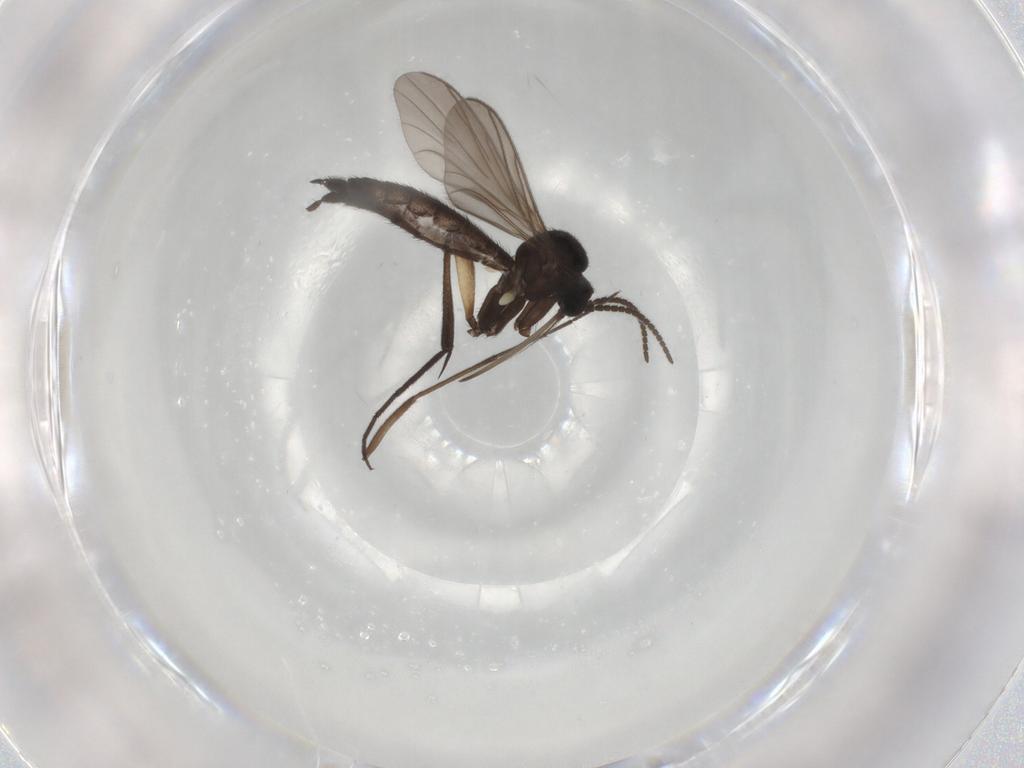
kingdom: Animalia
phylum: Arthropoda
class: Insecta
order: Diptera
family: Keroplatidae
